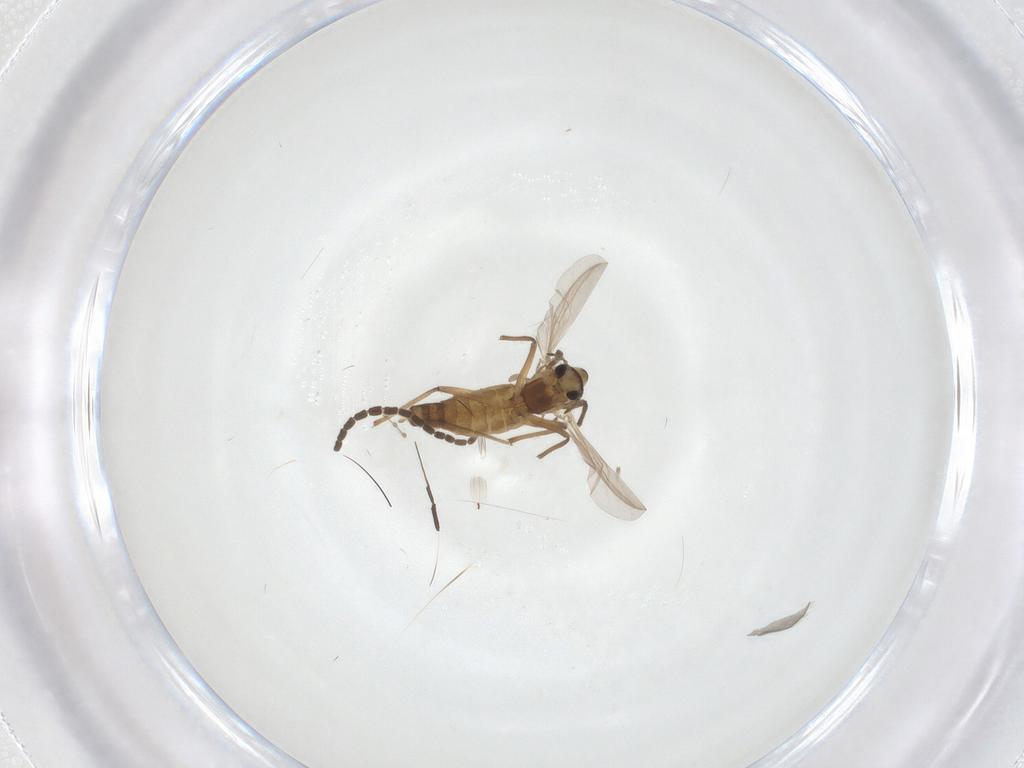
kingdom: Animalia
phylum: Arthropoda
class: Insecta
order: Diptera
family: Chironomidae
